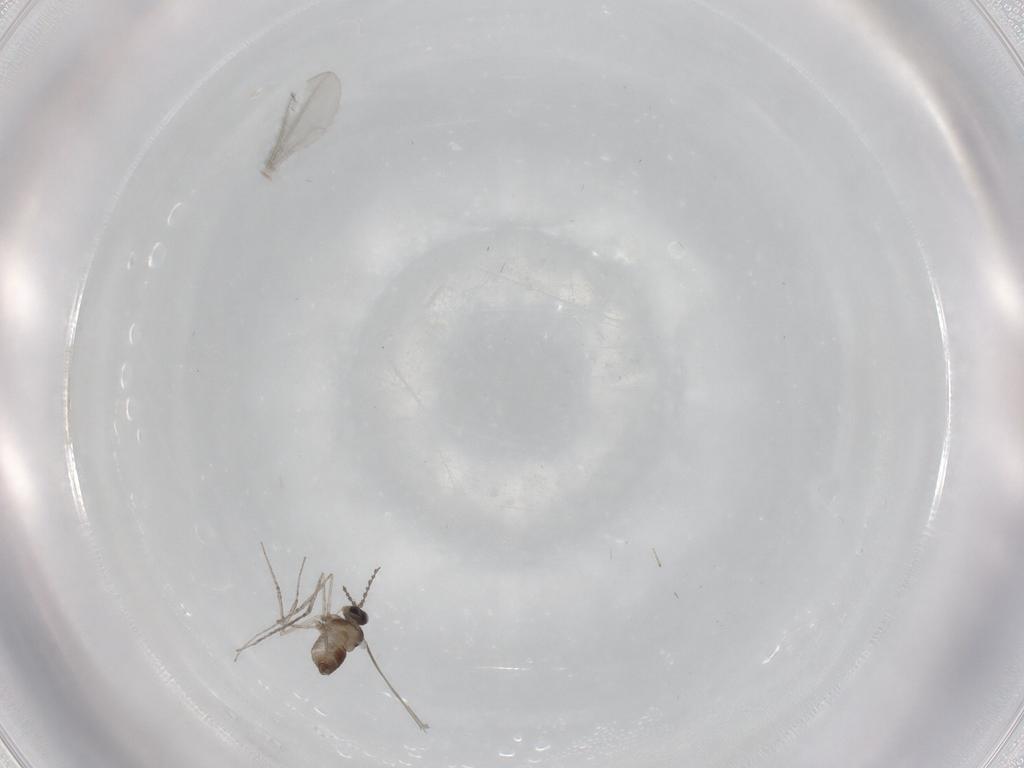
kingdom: Animalia
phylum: Arthropoda
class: Insecta
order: Diptera
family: Cecidomyiidae
